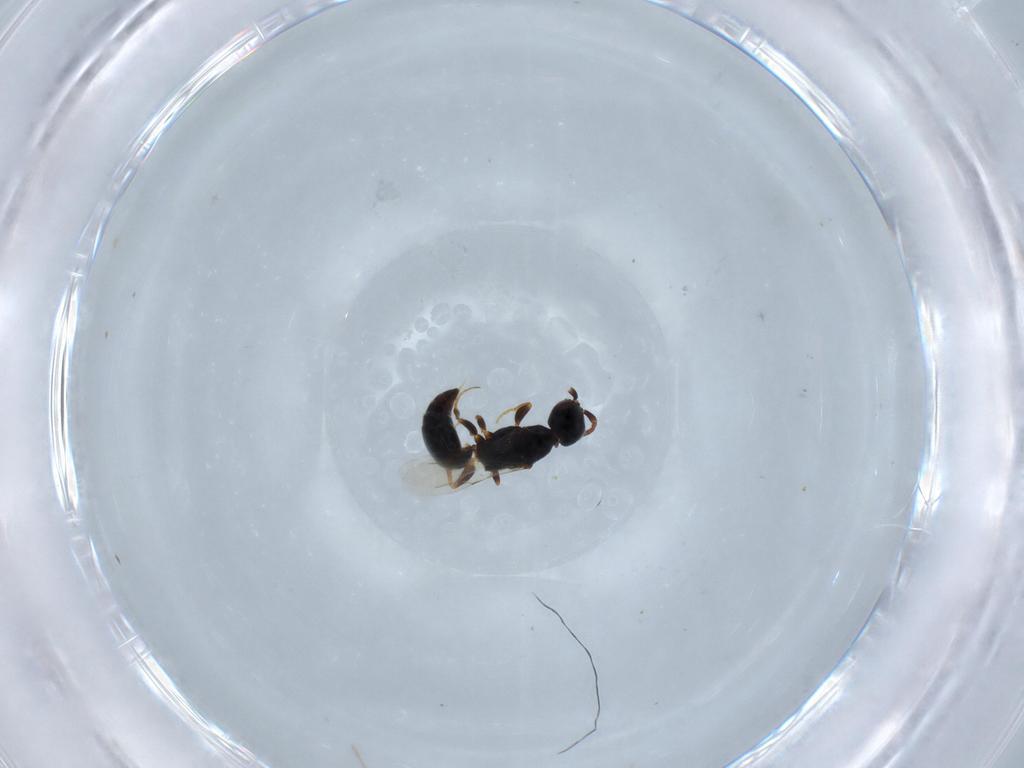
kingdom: Animalia
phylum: Arthropoda
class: Insecta
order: Hymenoptera
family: Bethylidae
